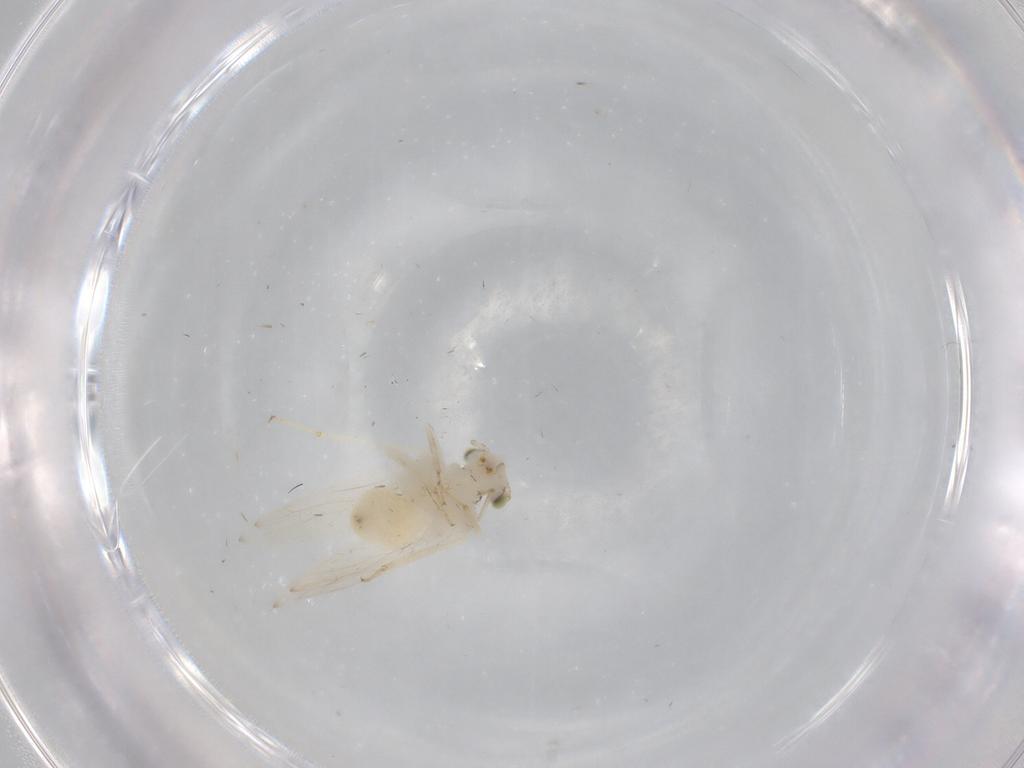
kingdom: Animalia
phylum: Arthropoda
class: Insecta
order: Psocodea
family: Lepidopsocidae
